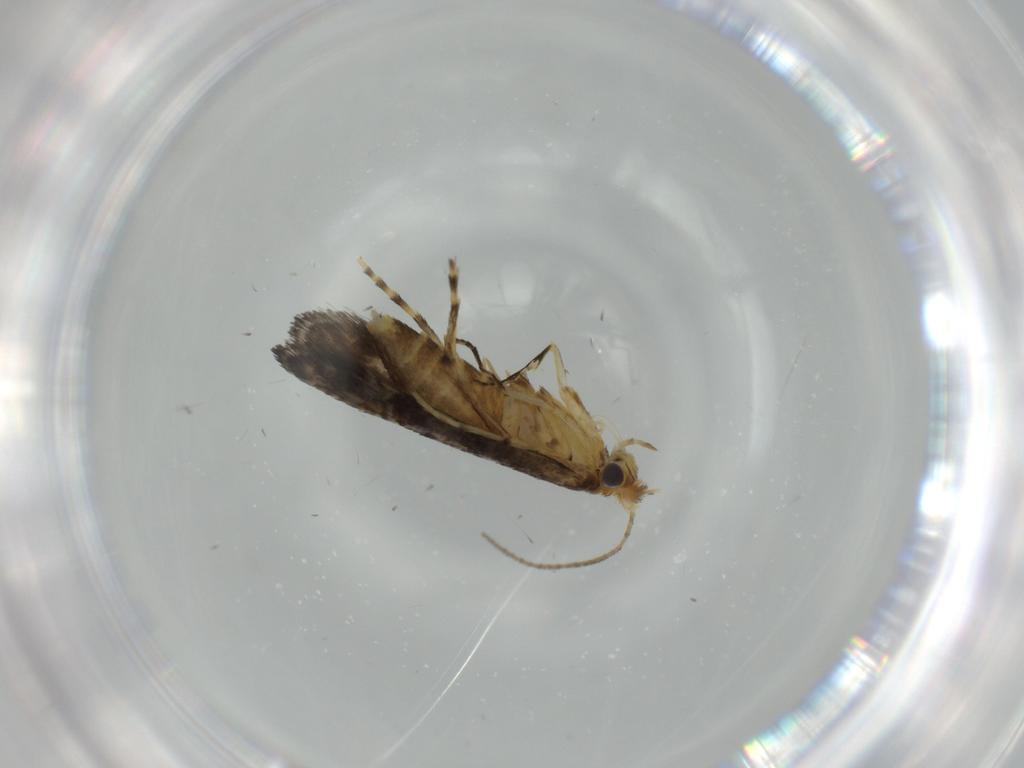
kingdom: Animalia
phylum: Arthropoda
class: Insecta
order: Lepidoptera
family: Argyresthiidae
